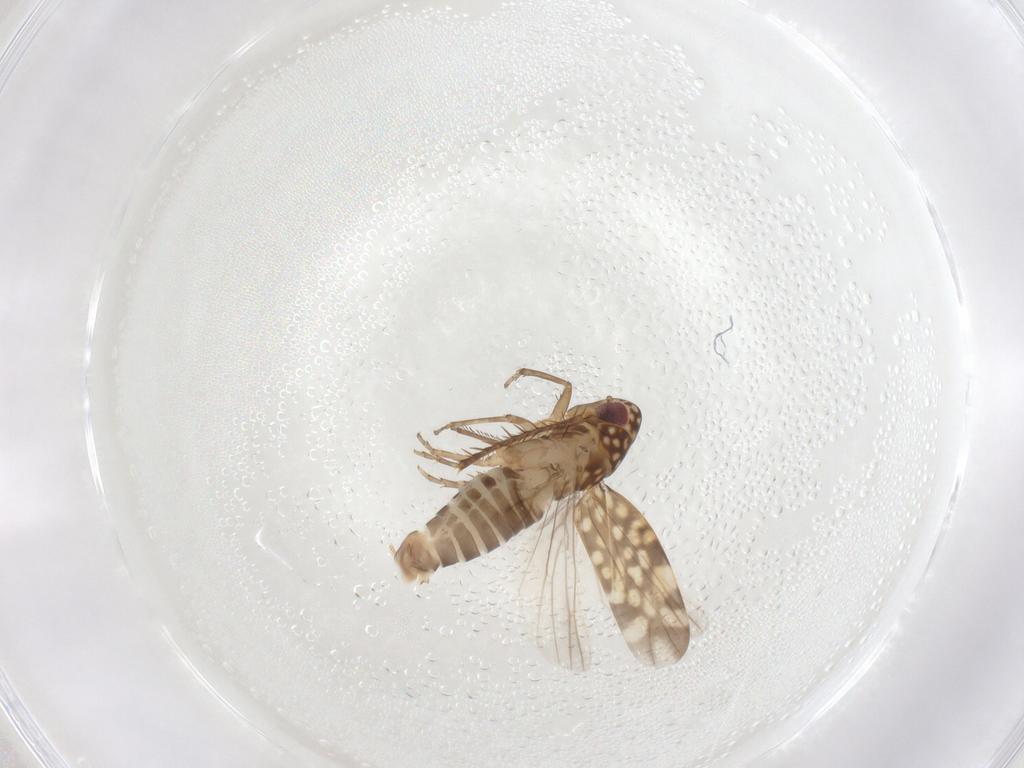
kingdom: Animalia
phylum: Arthropoda
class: Insecta
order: Hemiptera
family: Cicadellidae
